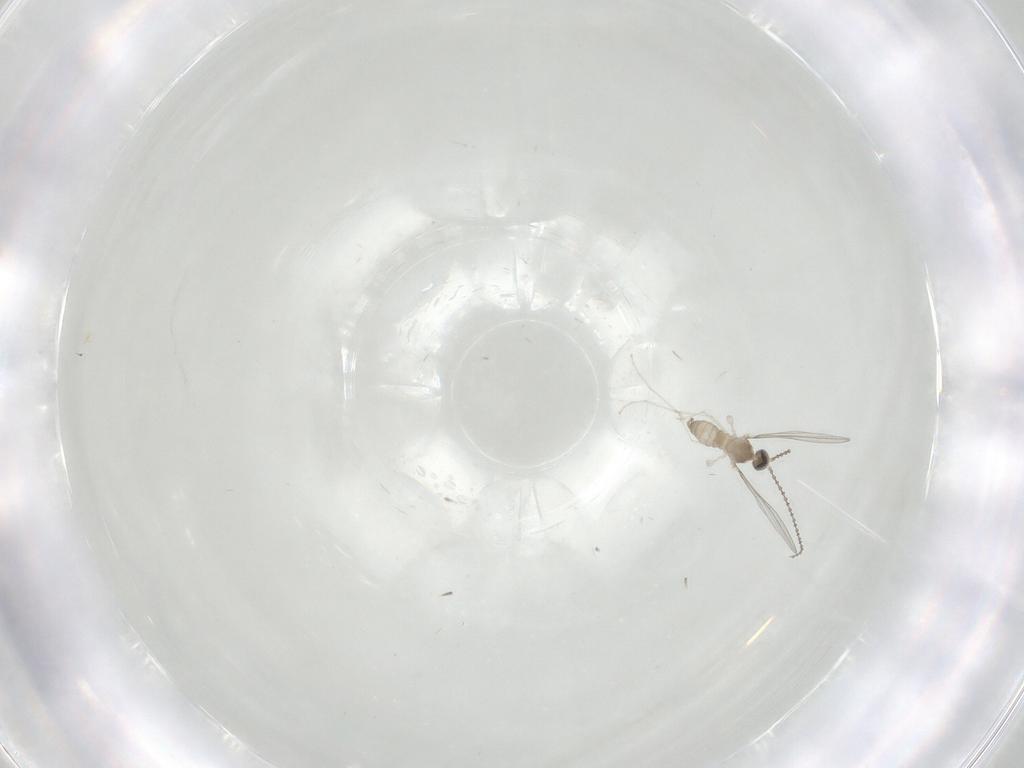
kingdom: Animalia
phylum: Arthropoda
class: Insecta
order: Diptera
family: Chironomidae
